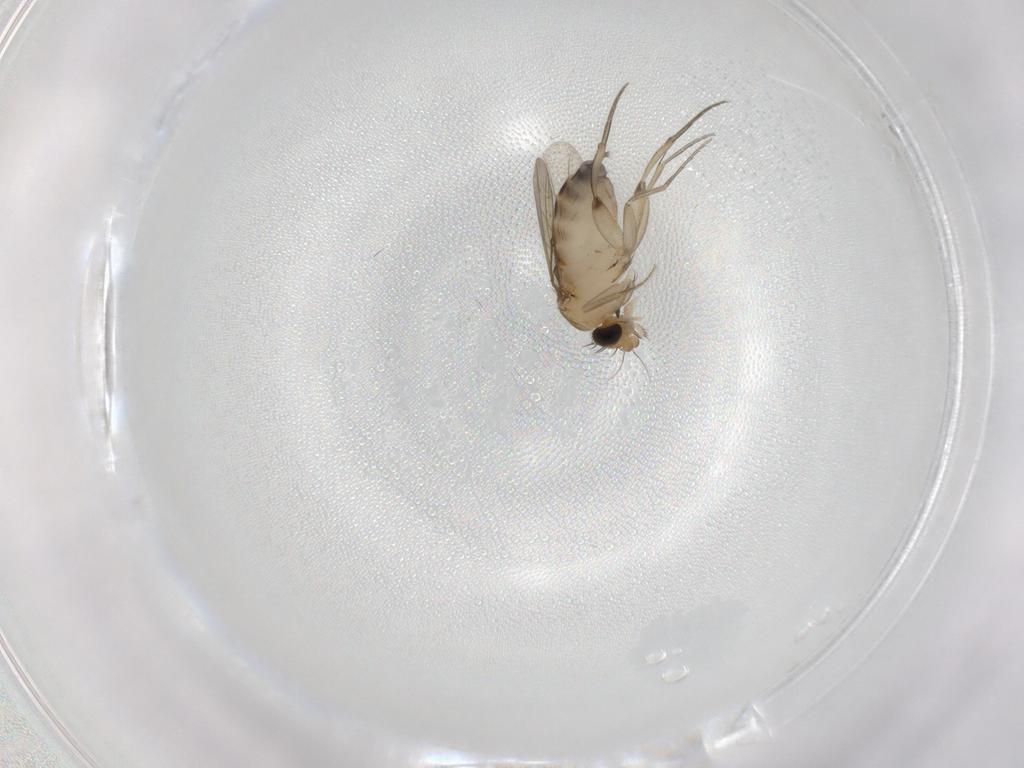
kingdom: Animalia
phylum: Arthropoda
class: Insecta
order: Diptera
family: Phoridae
